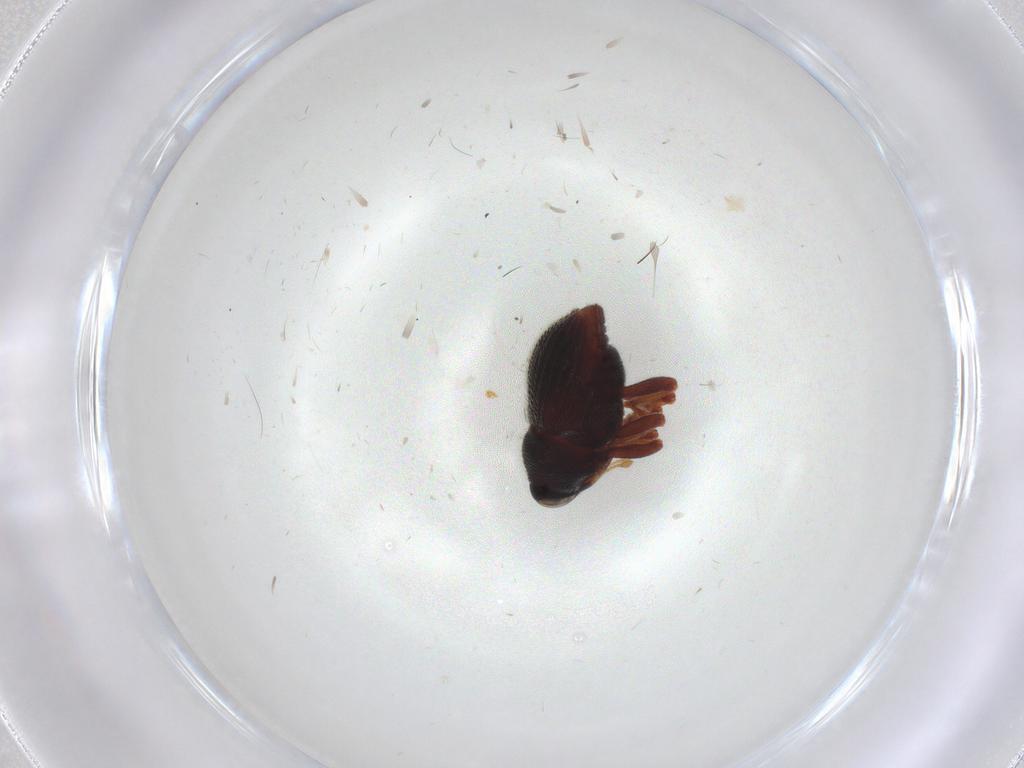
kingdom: Animalia
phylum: Arthropoda
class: Insecta
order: Coleoptera
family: Curculionidae
